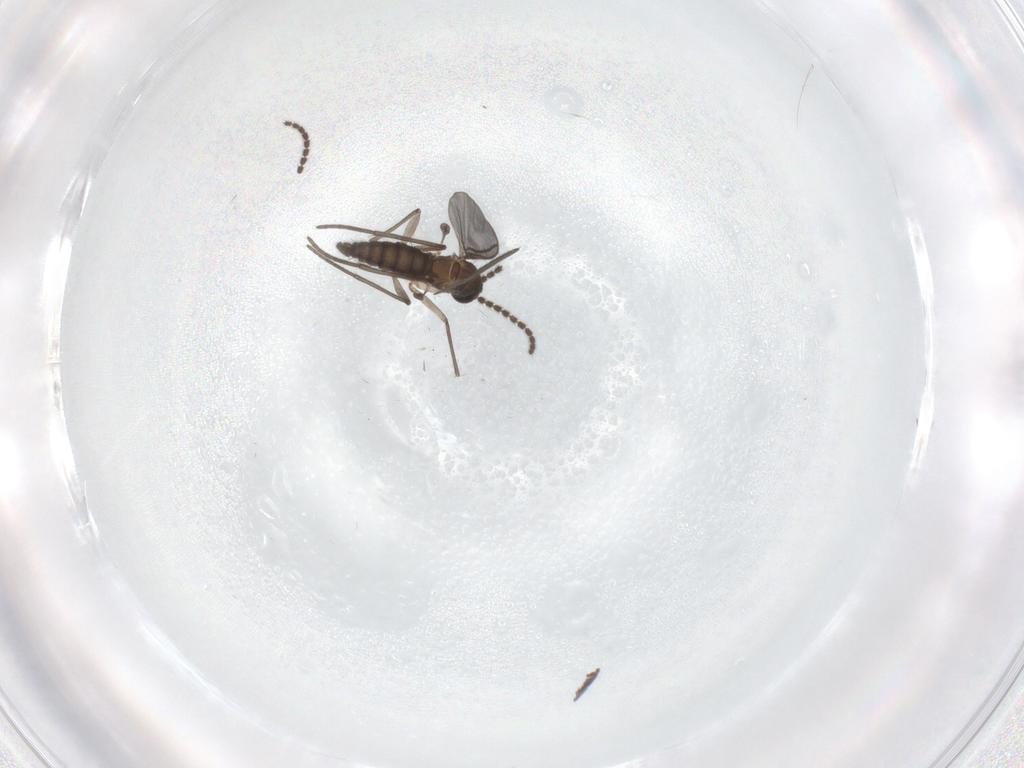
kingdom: Animalia
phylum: Arthropoda
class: Insecta
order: Diptera
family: Dolichopodidae
